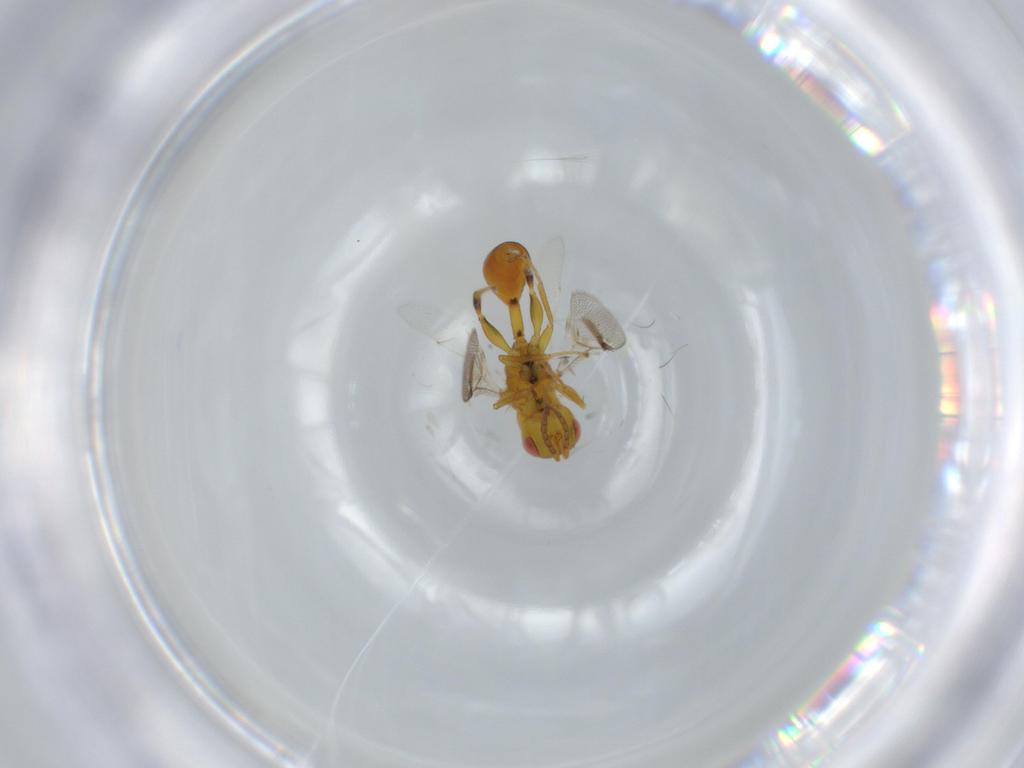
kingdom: Animalia
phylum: Arthropoda
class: Insecta
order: Hymenoptera
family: Eurytomidae
